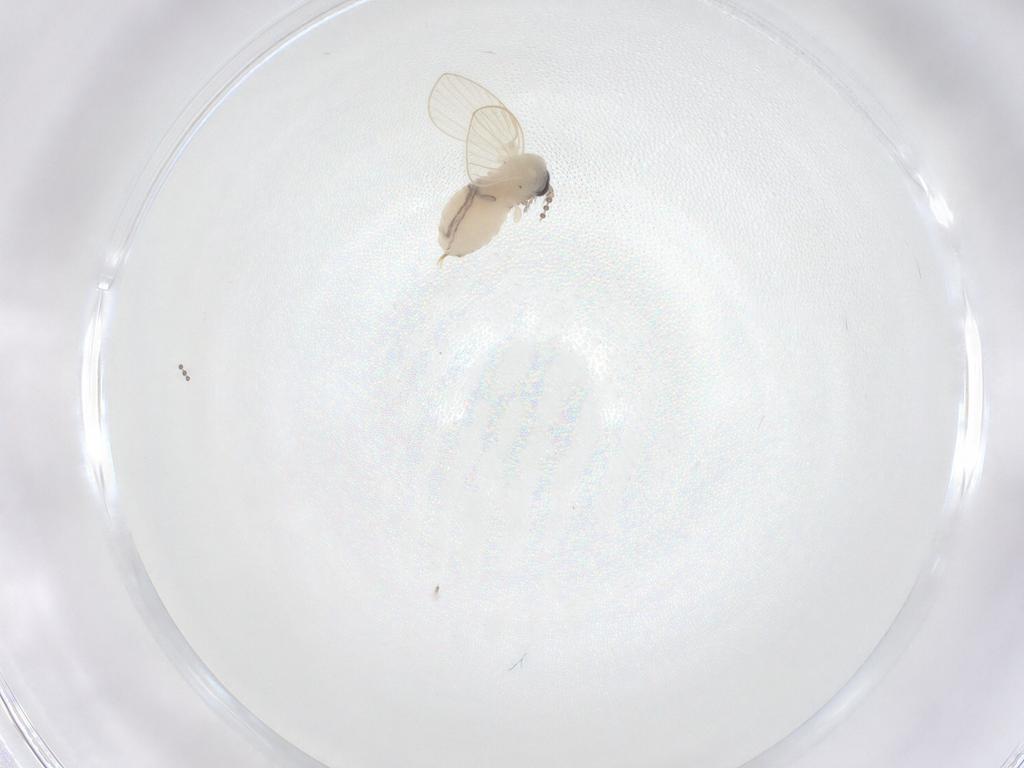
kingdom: Animalia
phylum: Arthropoda
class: Insecta
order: Diptera
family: Psychodidae
